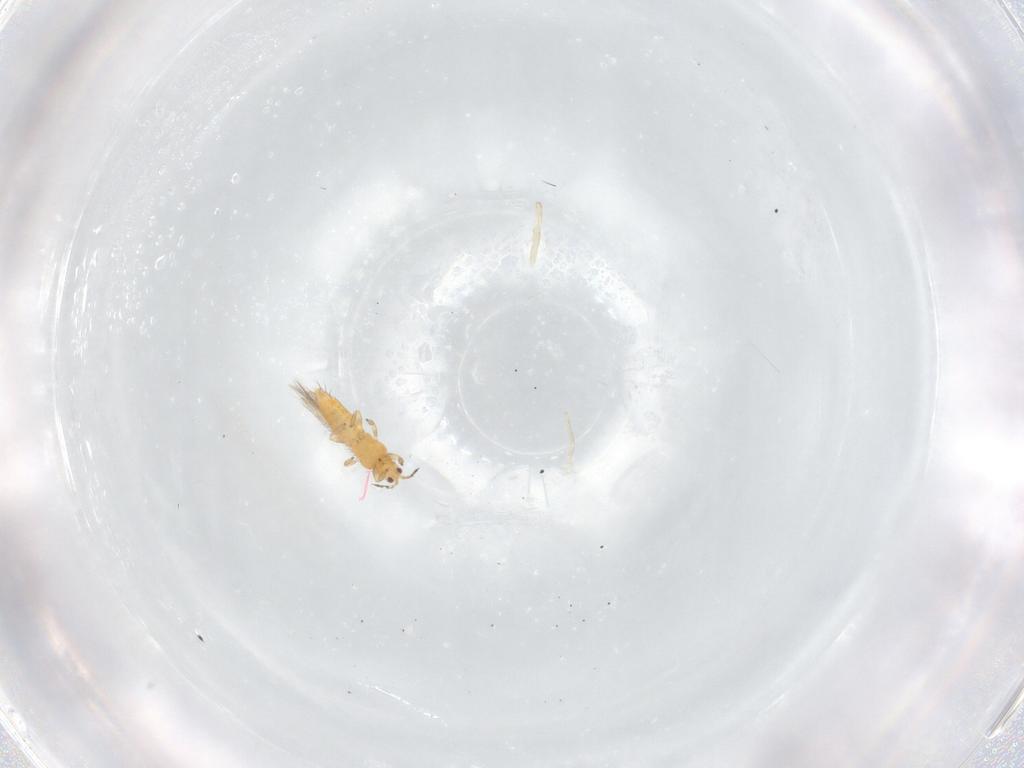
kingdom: Animalia
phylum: Arthropoda
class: Insecta
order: Thysanoptera
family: Thripidae
